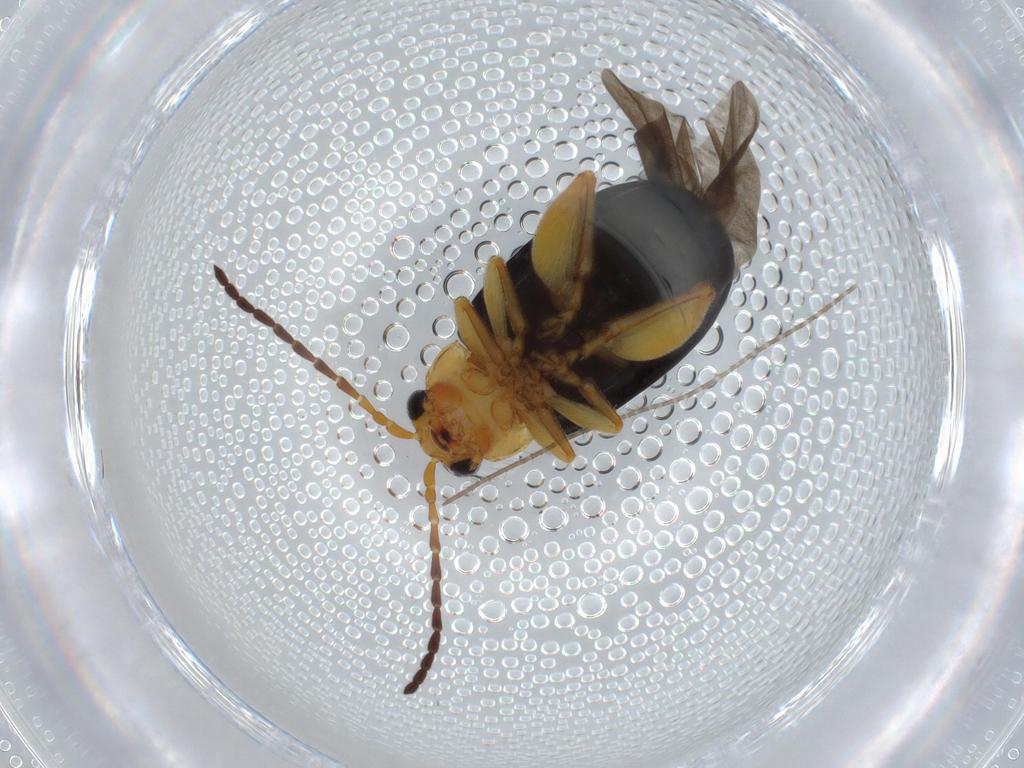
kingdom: Animalia
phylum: Arthropoda
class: Insecta
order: Coleoptera
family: Chrysomelidae
